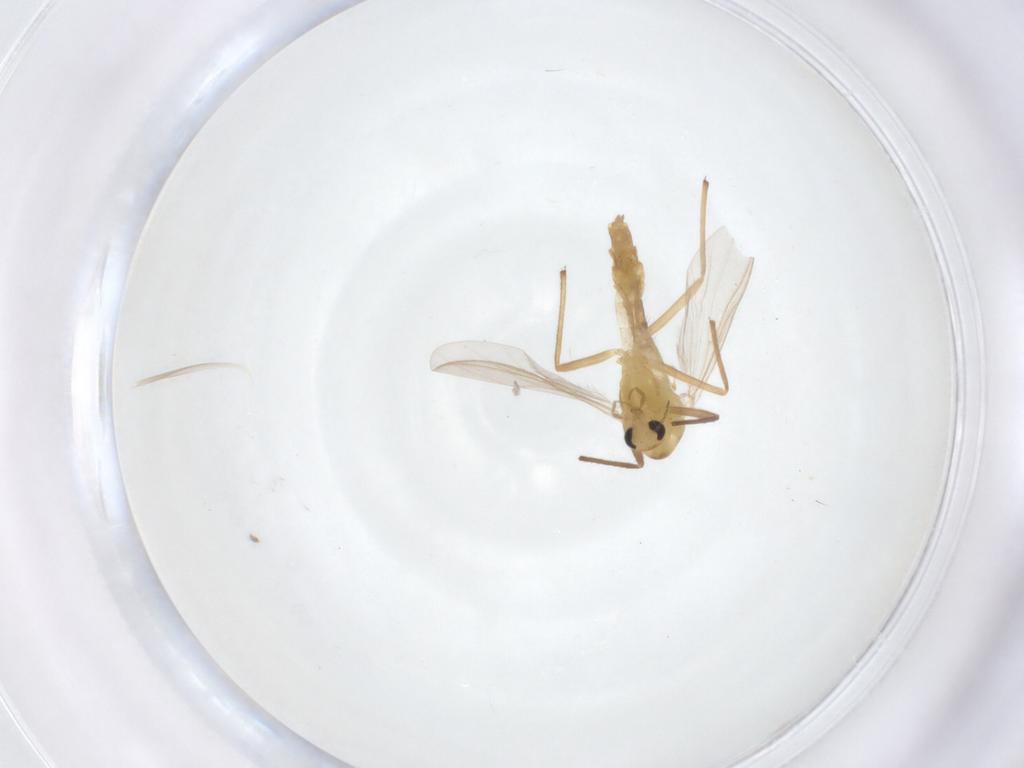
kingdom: Animalia
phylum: Arthropoda
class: Insecta
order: Diptera
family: Chironomidae
